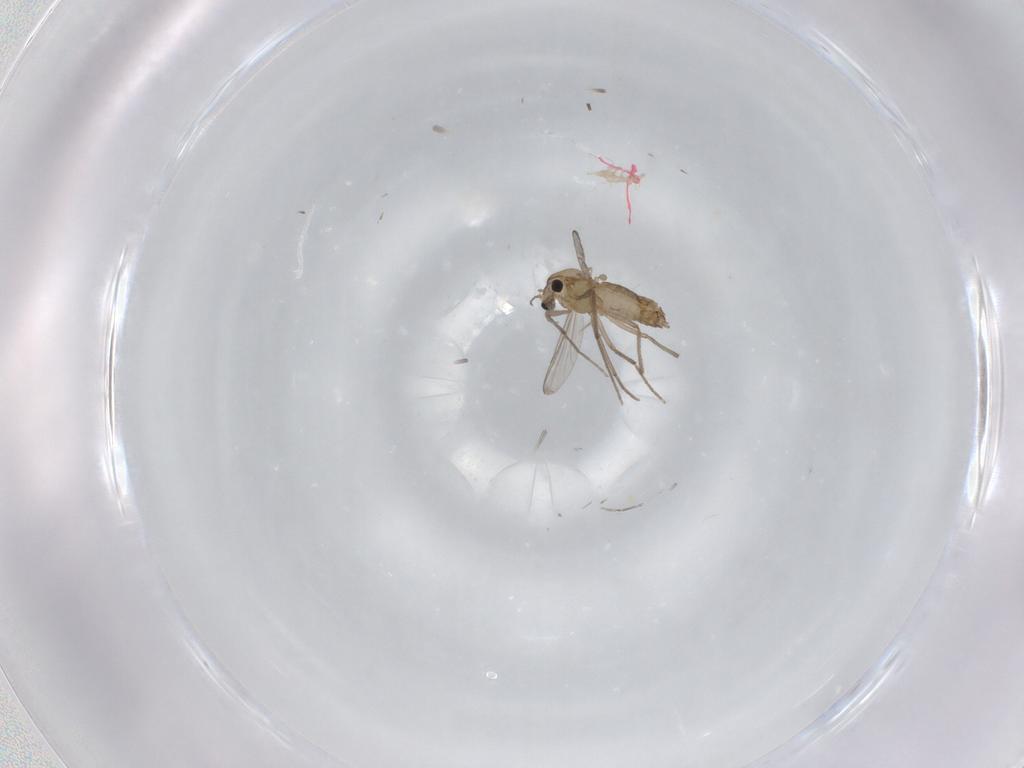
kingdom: Animalia
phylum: Arthropoda
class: Insecta
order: Diptera
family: Chironomidae
